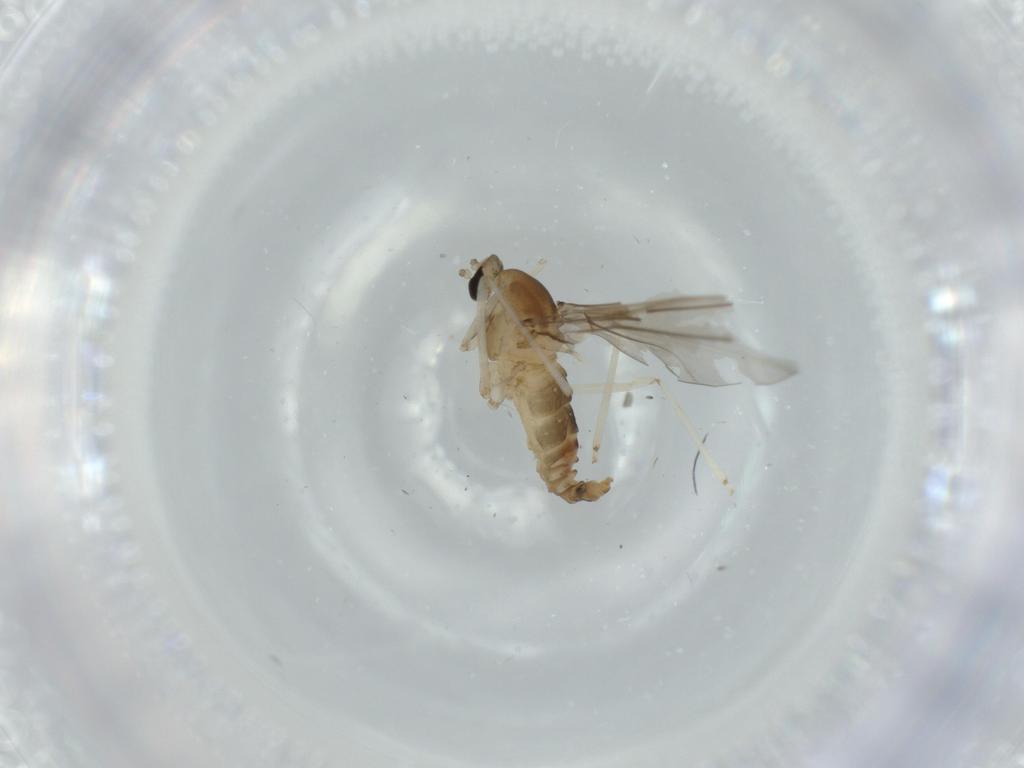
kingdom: Animalia
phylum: Arthropoda
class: Insecta
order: Diptera
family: Cecidomyiidae
